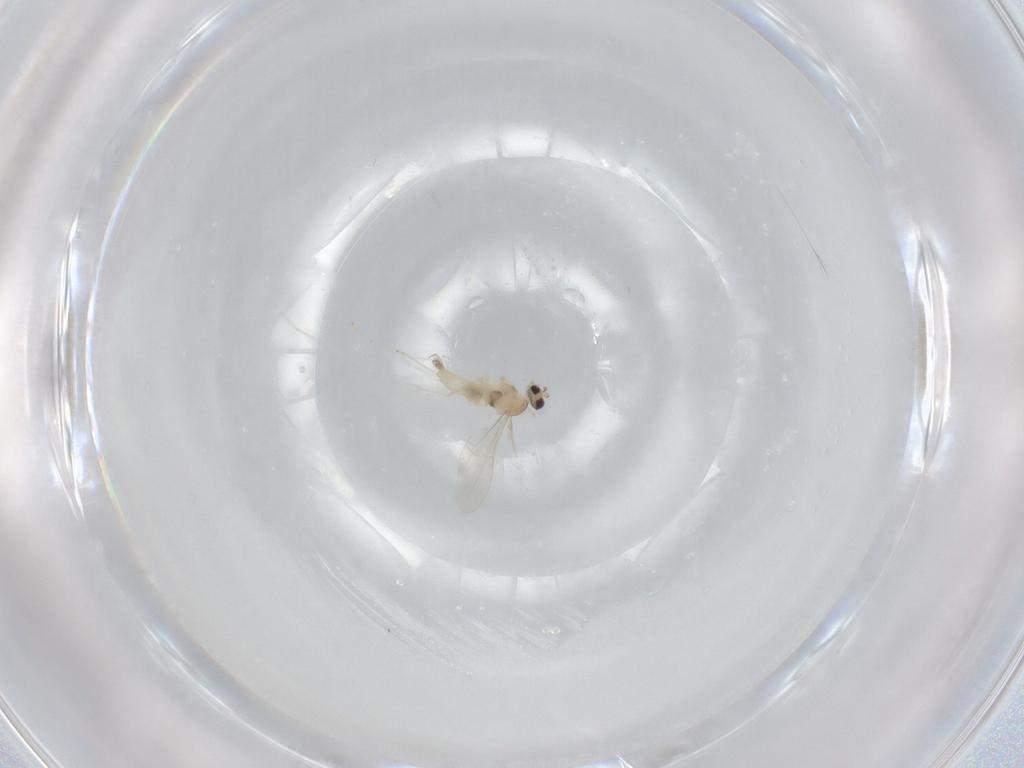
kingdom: Animalia
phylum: Arthropoda
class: Insecta
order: Diptera
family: Cecidomyiidae
